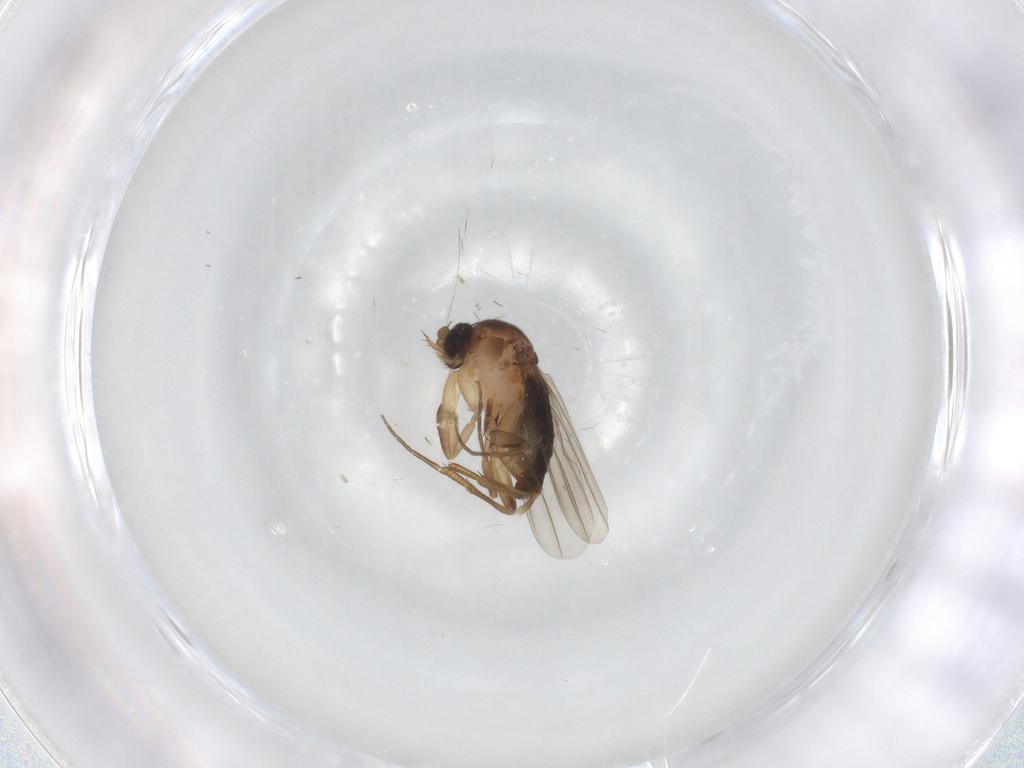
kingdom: Animalia
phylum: Arthropoda
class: Insecta
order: Diptera
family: Phoridae
